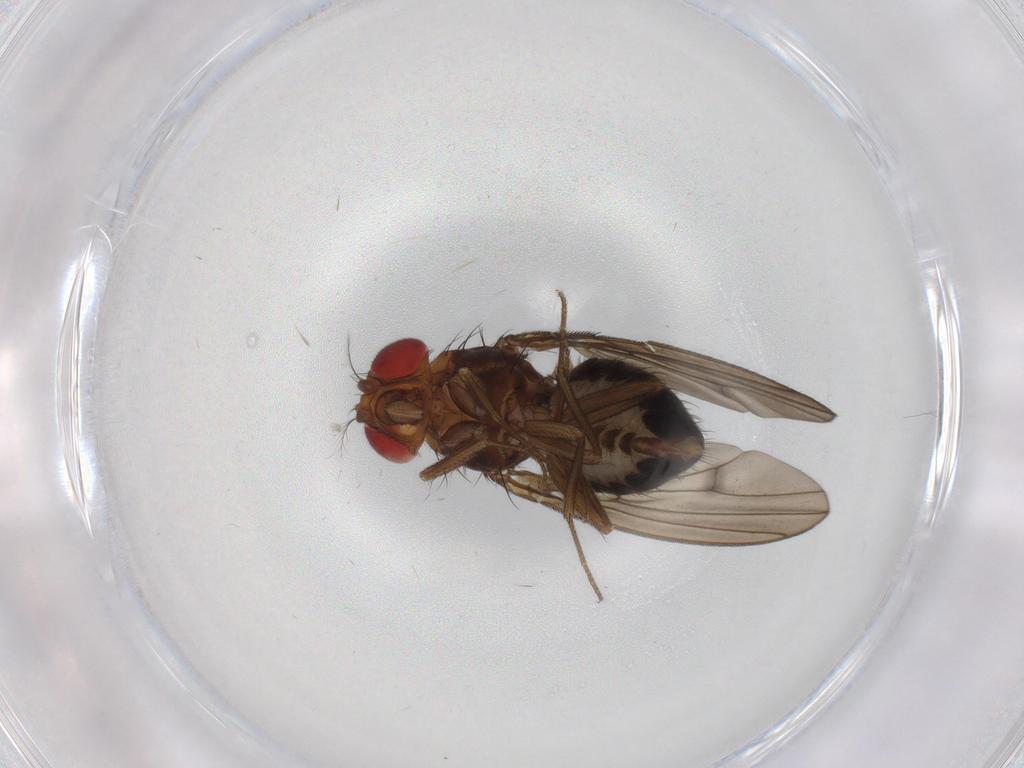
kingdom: Animalia
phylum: Arthropoda
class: Insecta
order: Diptera
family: Drosophilidae
